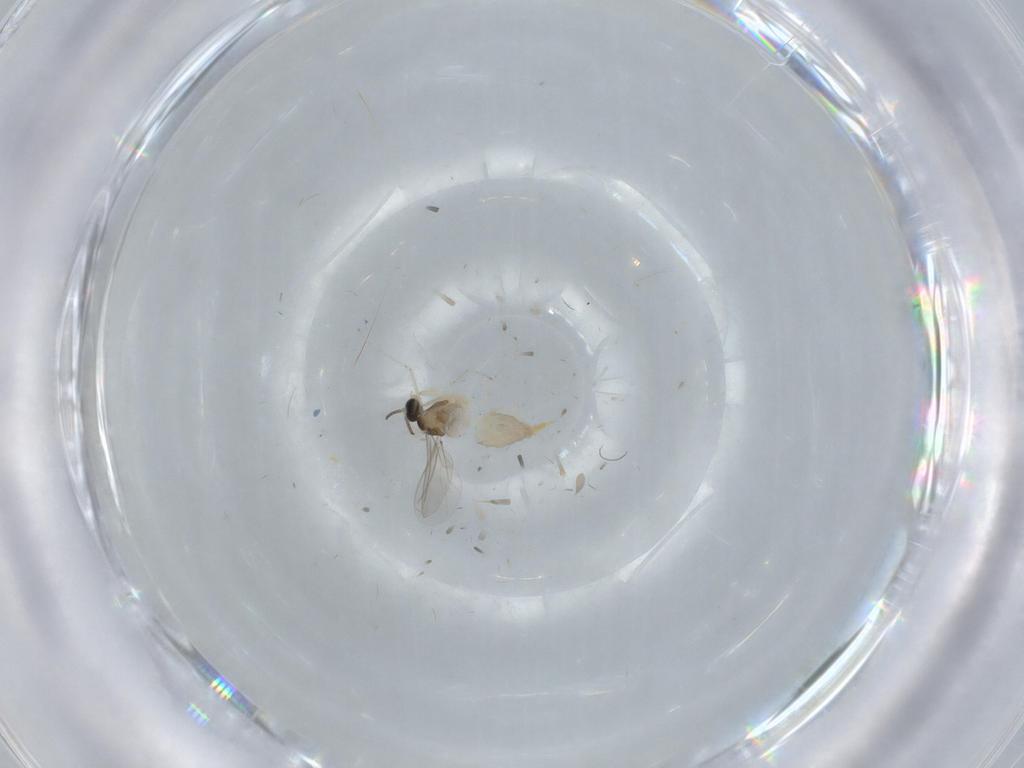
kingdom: Animalia
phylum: Arthropoda
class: Insecta
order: Diptera
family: Cecidomyiidae
